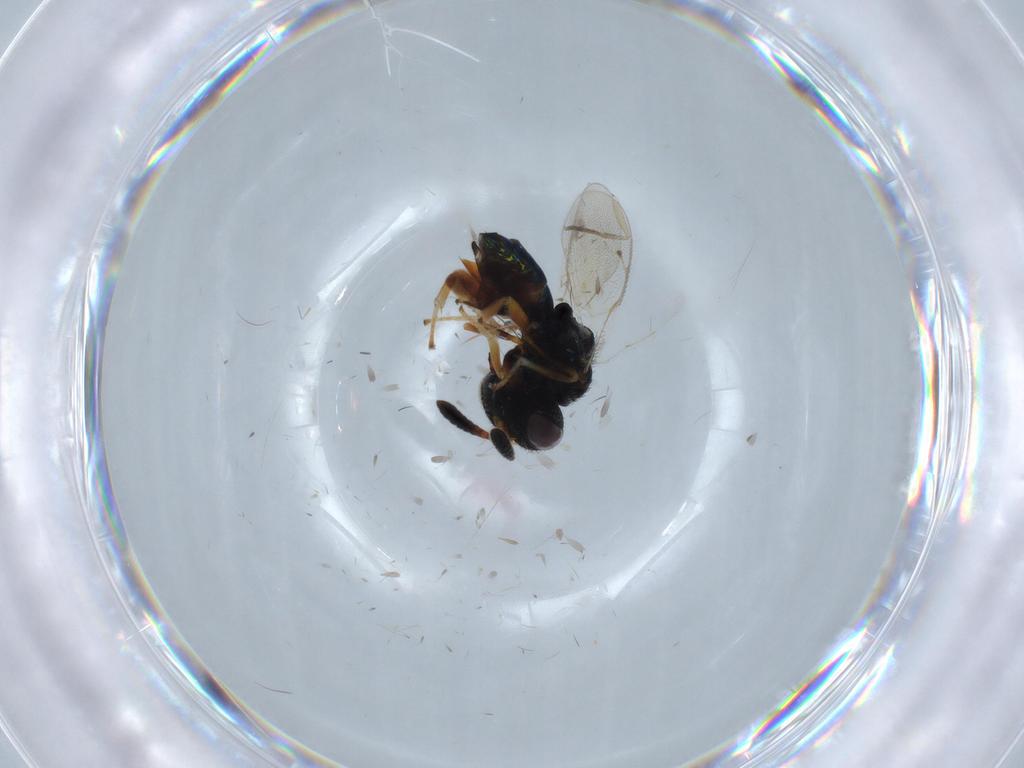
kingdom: Animalia
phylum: Arthropoda
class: Insecta
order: Hymenoptera
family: Agaonidae
